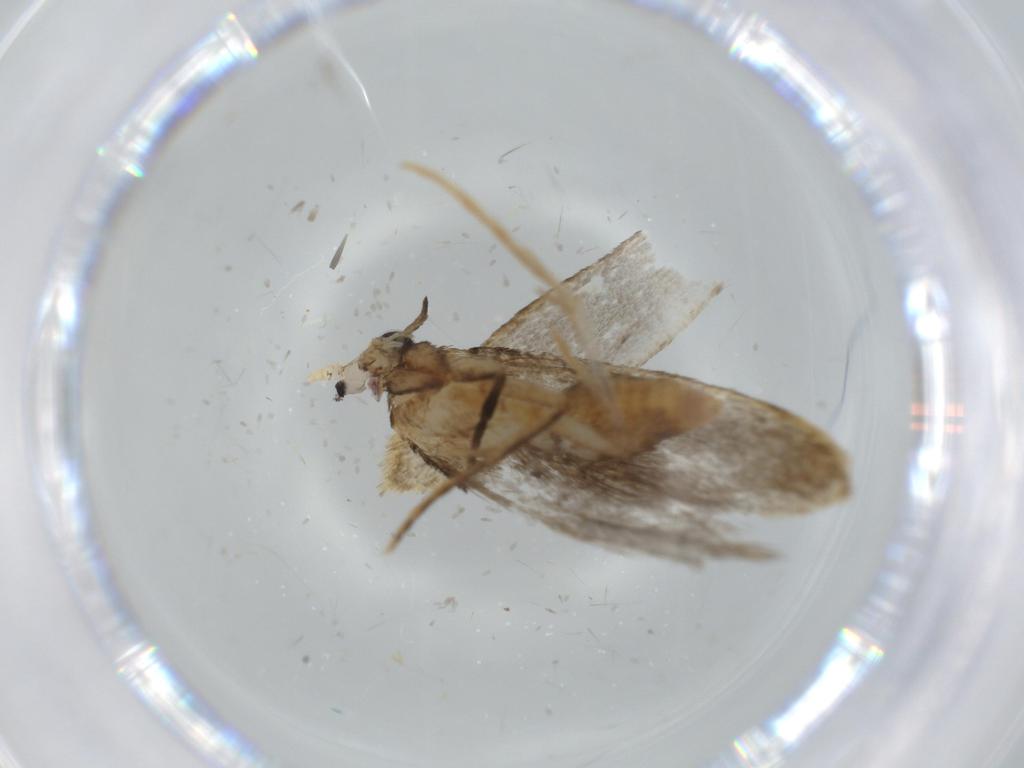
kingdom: Animalia
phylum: Arthropoda
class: Insecta
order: Lepidoptera
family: Tineidae
